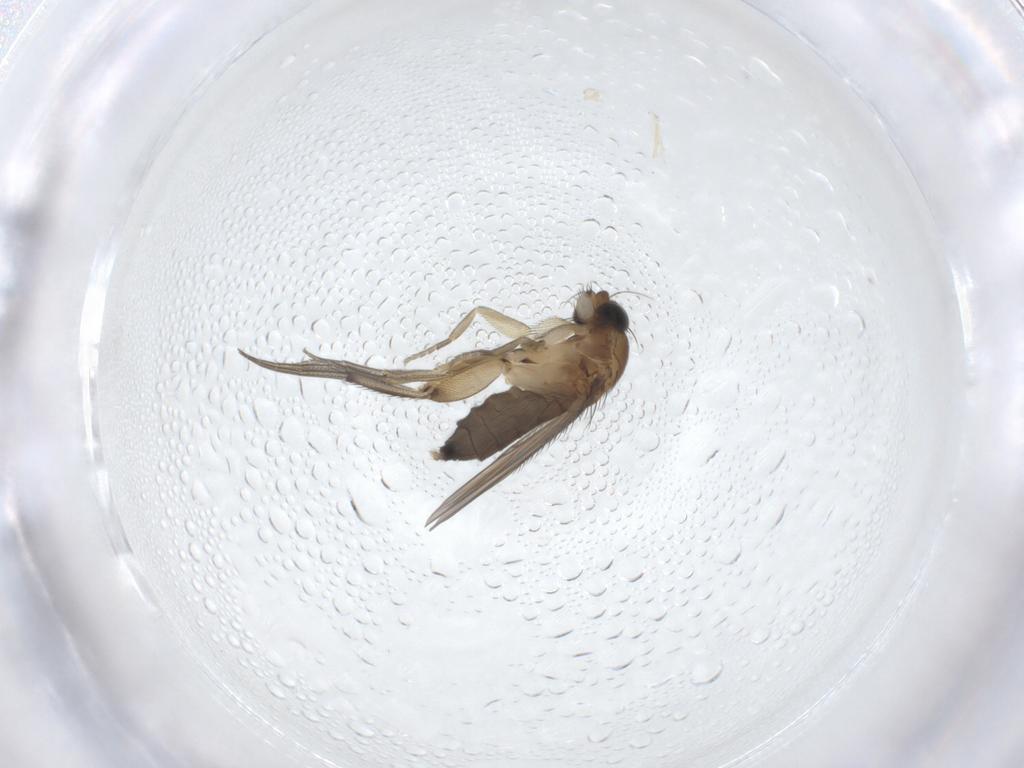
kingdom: Animalia
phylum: Arthropoda
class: Insecta
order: Diptera
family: Phoridae
